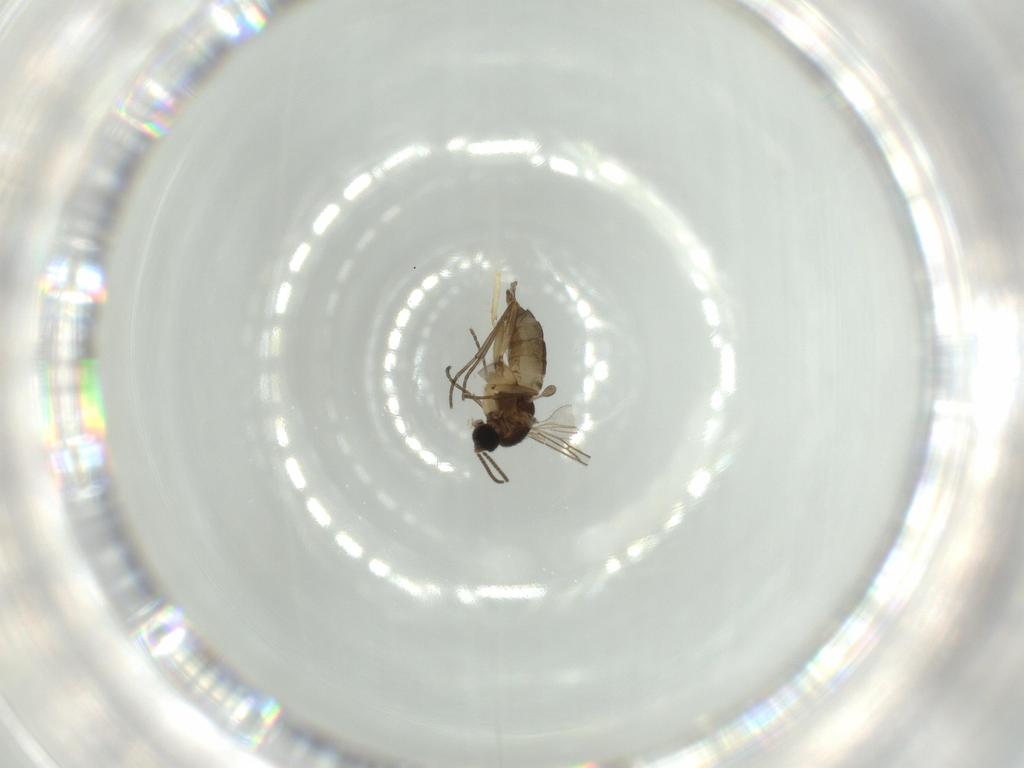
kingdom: Animalia
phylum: Arthropoda
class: Insecta
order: Diptera
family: Sciaridae
